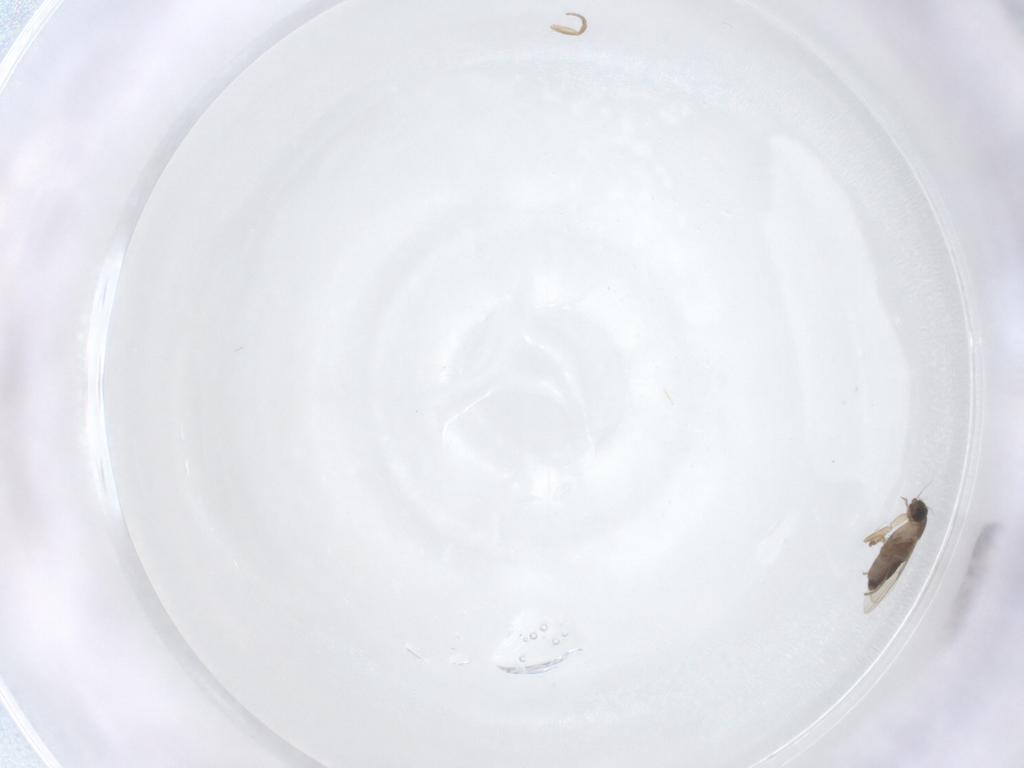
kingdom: Animalia
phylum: Arthropoda
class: Insecta
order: Diptera
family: Phoridae
